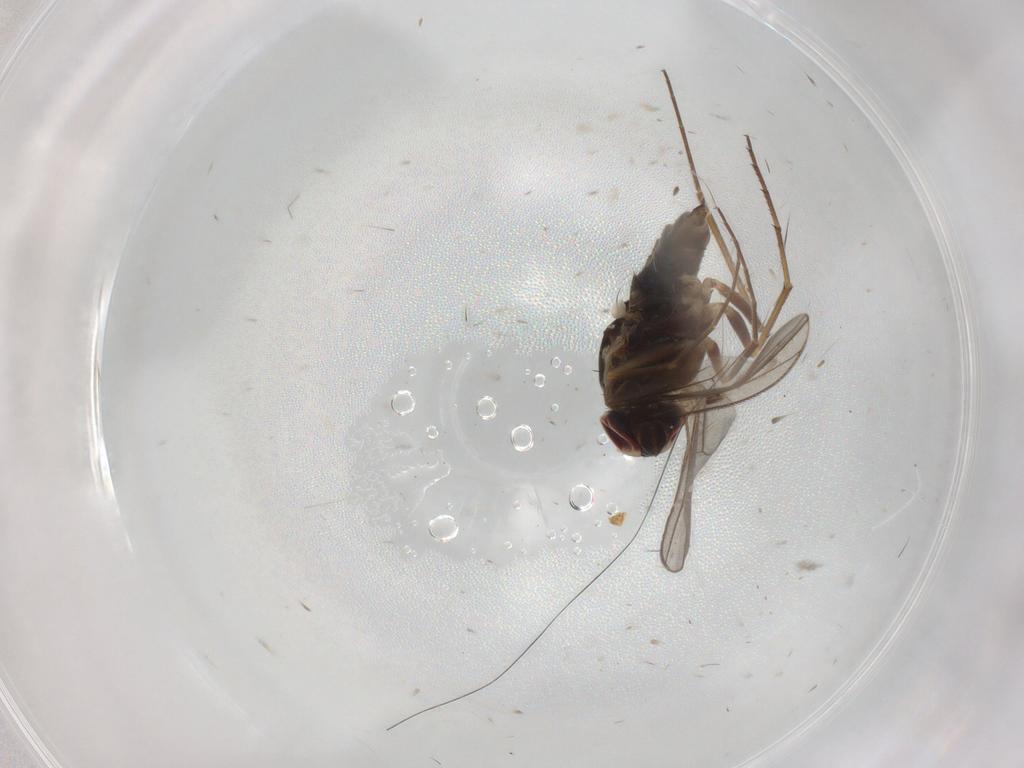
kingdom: Animalia
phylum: Arthropoda
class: Insecta
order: Diptera
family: Dolichopodidae
